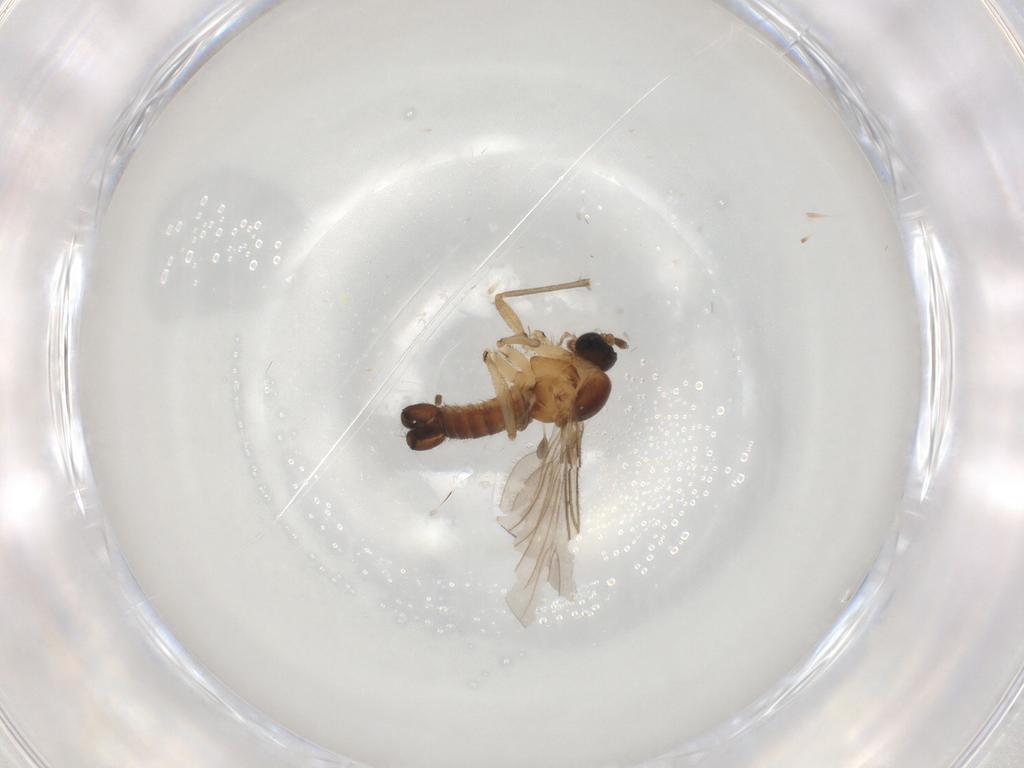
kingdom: Animalia
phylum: Arthropoda
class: Insecta
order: Diptera
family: Sciaridae
